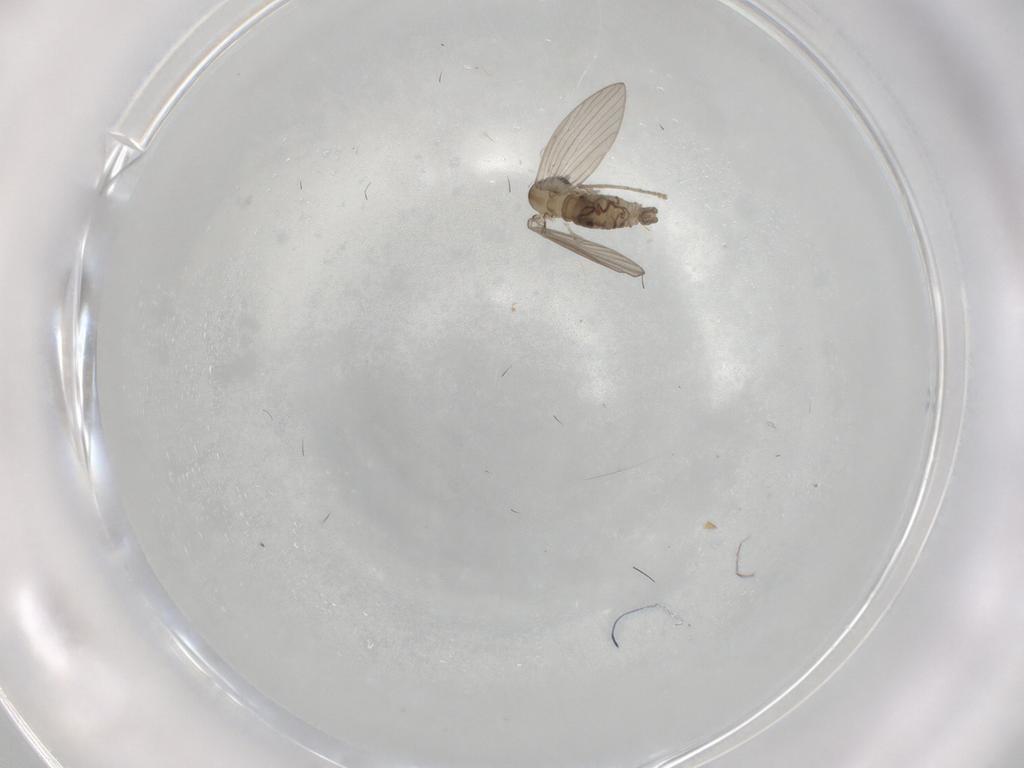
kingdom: Animalia
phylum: Arthropoda
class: Insecta
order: Diptera
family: Psychodidae
